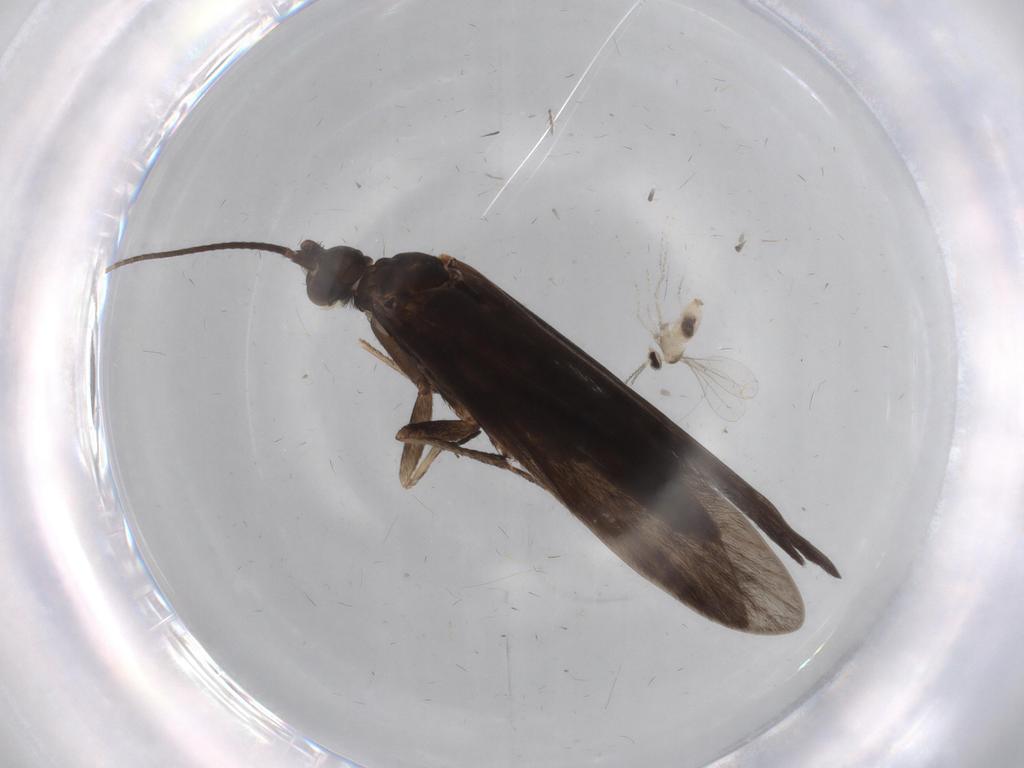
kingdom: Animalia
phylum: Arthropoda
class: Insecta
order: Trichoptera
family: Xiphocentronidae
